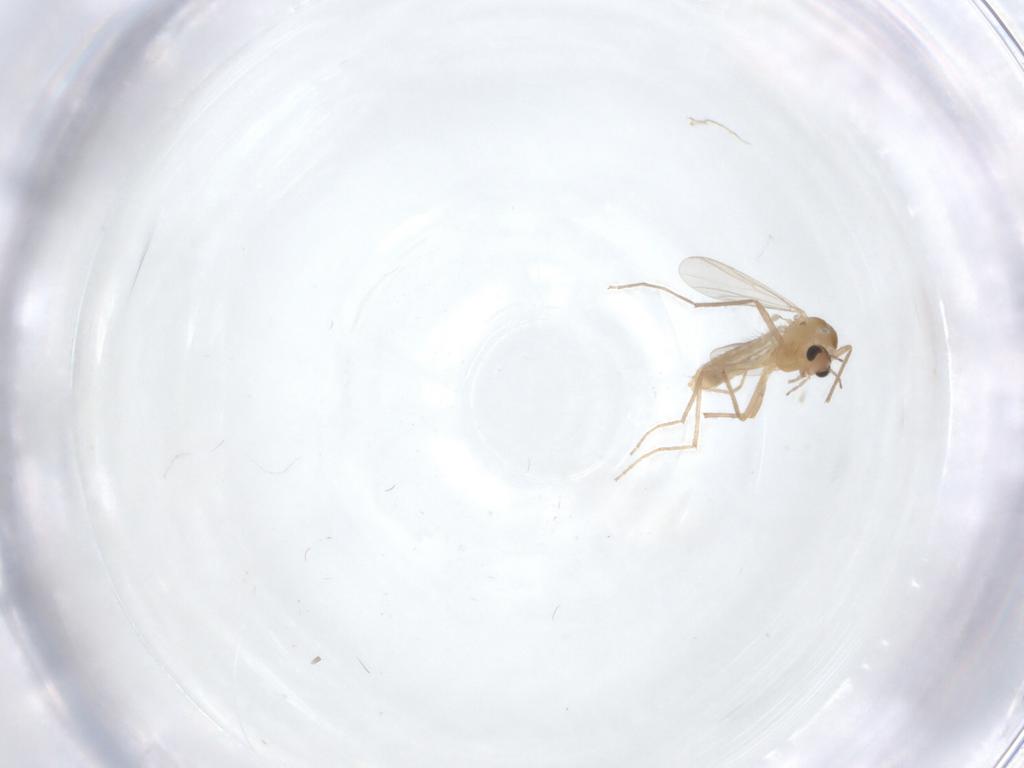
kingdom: Animalia
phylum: Arthropoda
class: Insecta
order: Diptera
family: Chironomidae
